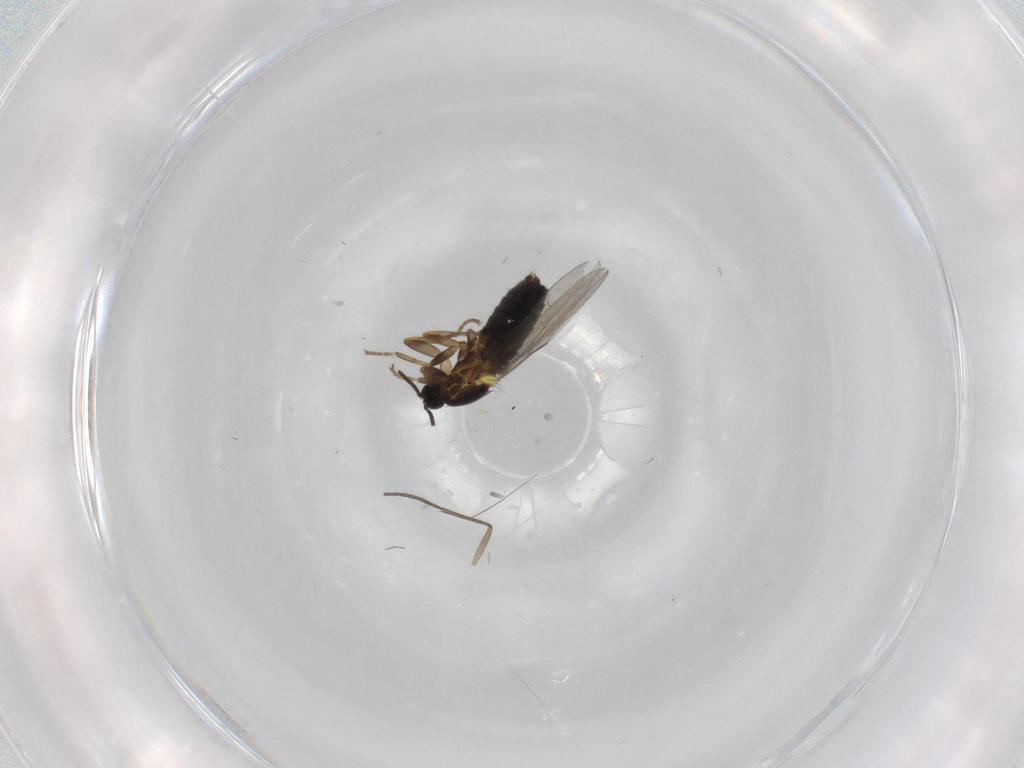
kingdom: Animalia
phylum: Arthropoda
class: Insecta
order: Diptera
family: Scatopsidae
